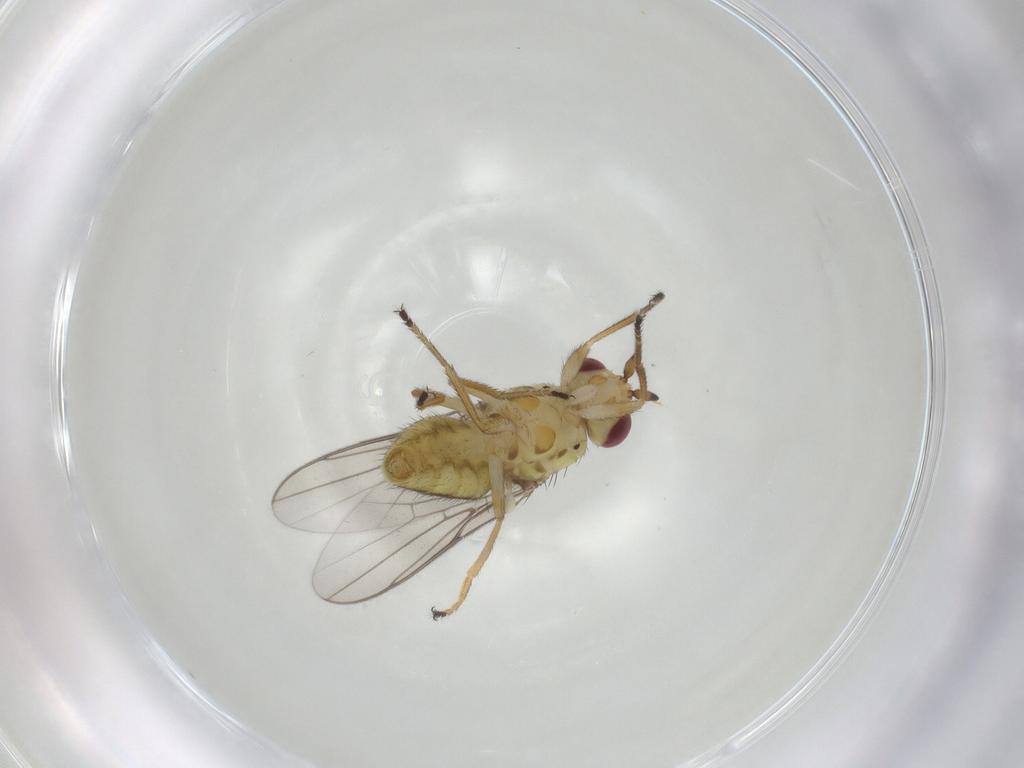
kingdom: Animalia
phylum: Arthropoda
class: Insecta
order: Diptera
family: Chloropidae
